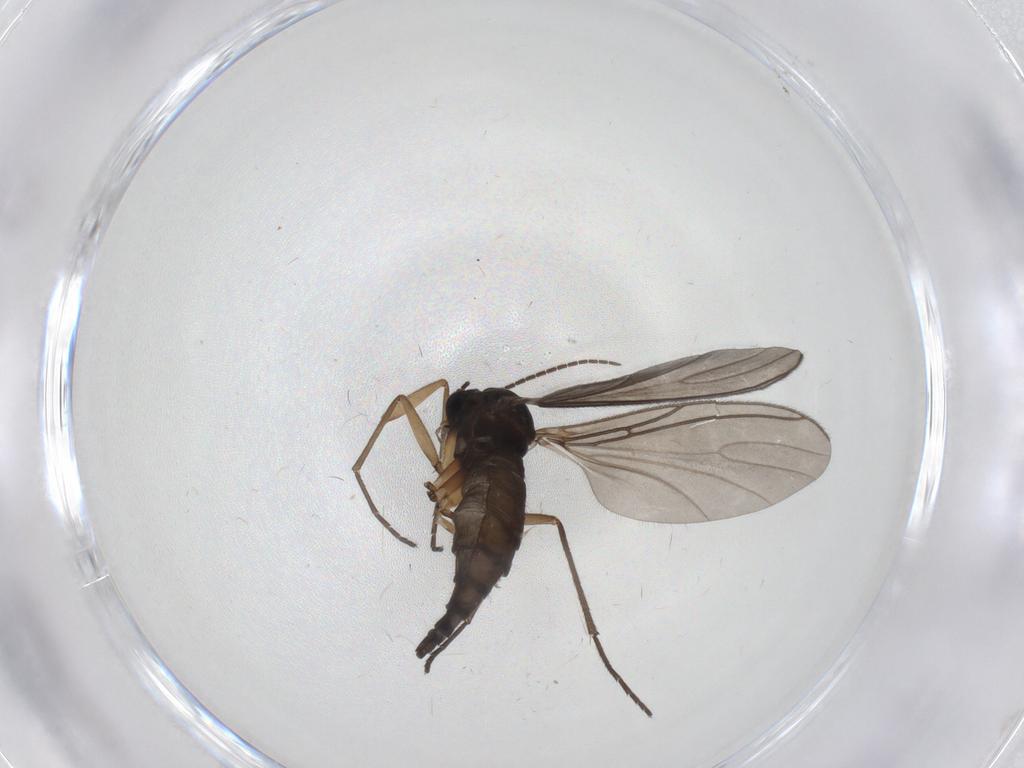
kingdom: Animalia
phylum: Arthropoda
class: Insecta
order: Diptera
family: Sciaridae
